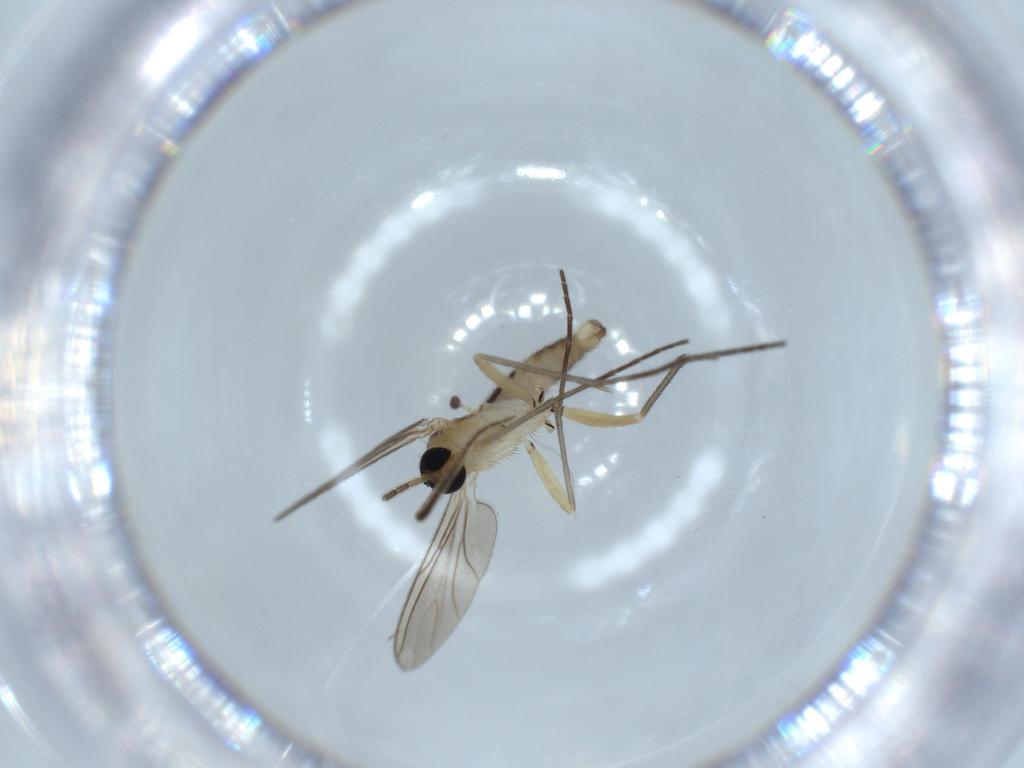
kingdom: Animalia
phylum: Arthropoda
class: Insecta
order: Diptera
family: Sciaridae
